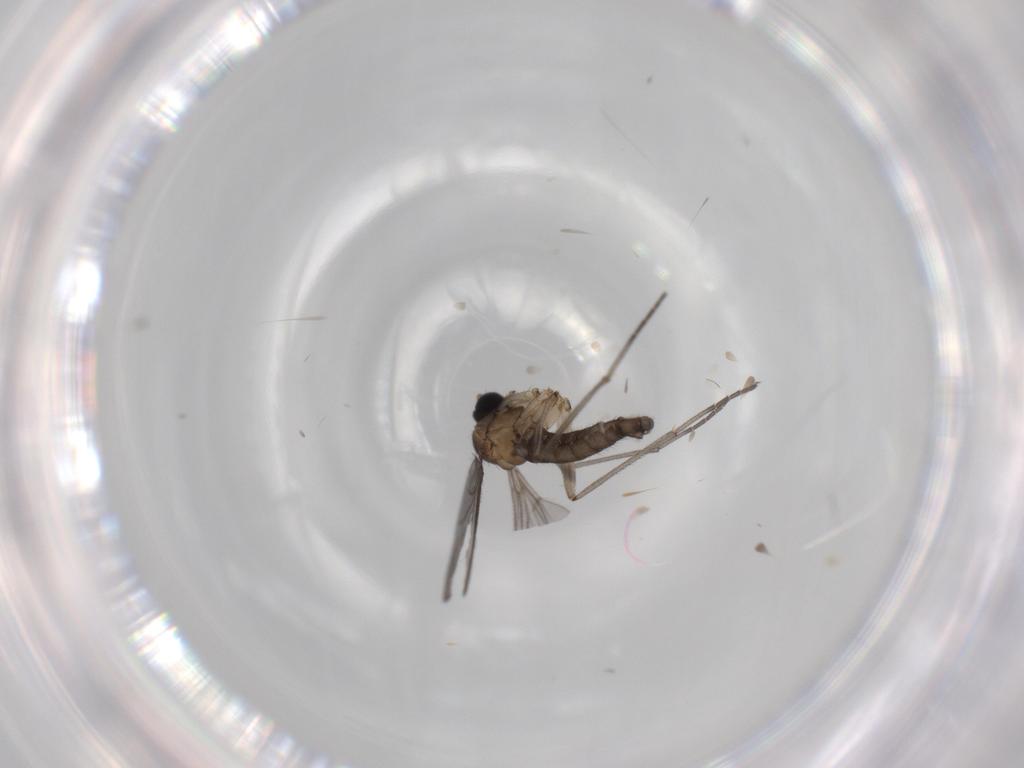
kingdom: Animalia
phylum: Arthropoda
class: Insecta
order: Diptera
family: Sciaridae
